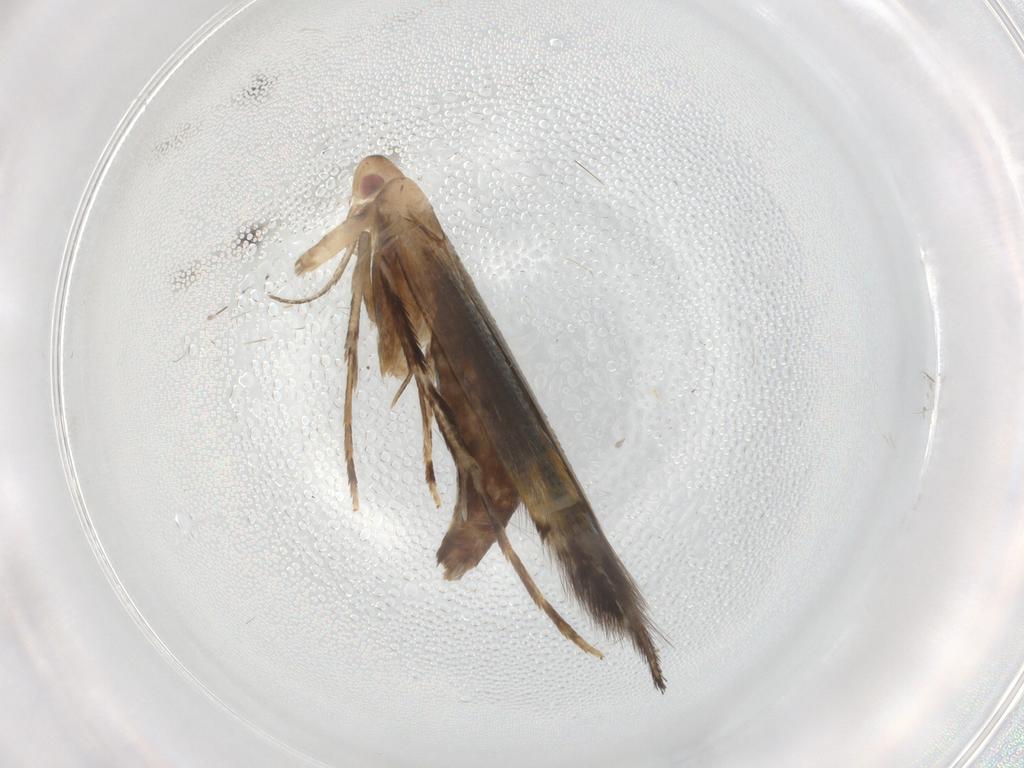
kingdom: Animalia
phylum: Arthropoda
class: Insecta
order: Lepidoptera
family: Cosmopterigidae
